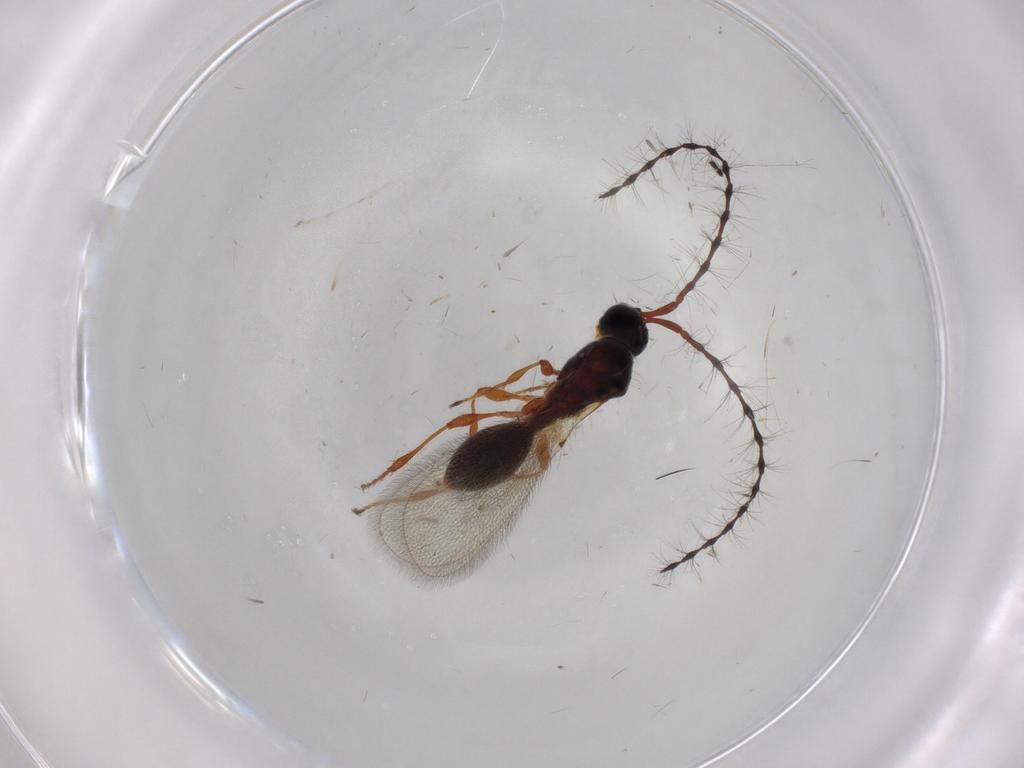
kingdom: Animalia
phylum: Arthropoda
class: Insecta
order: Hymenoptera
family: Diapriidae
